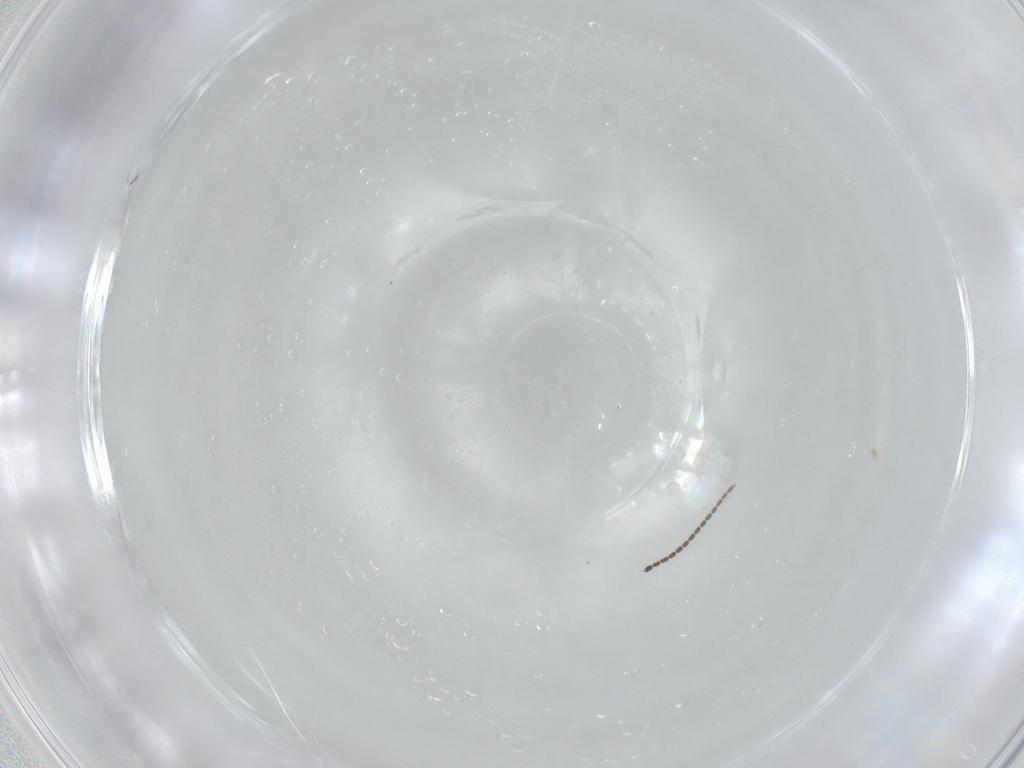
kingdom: Animalia
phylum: Arthropoda
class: Insecta
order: Diptera
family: Sciaridae
